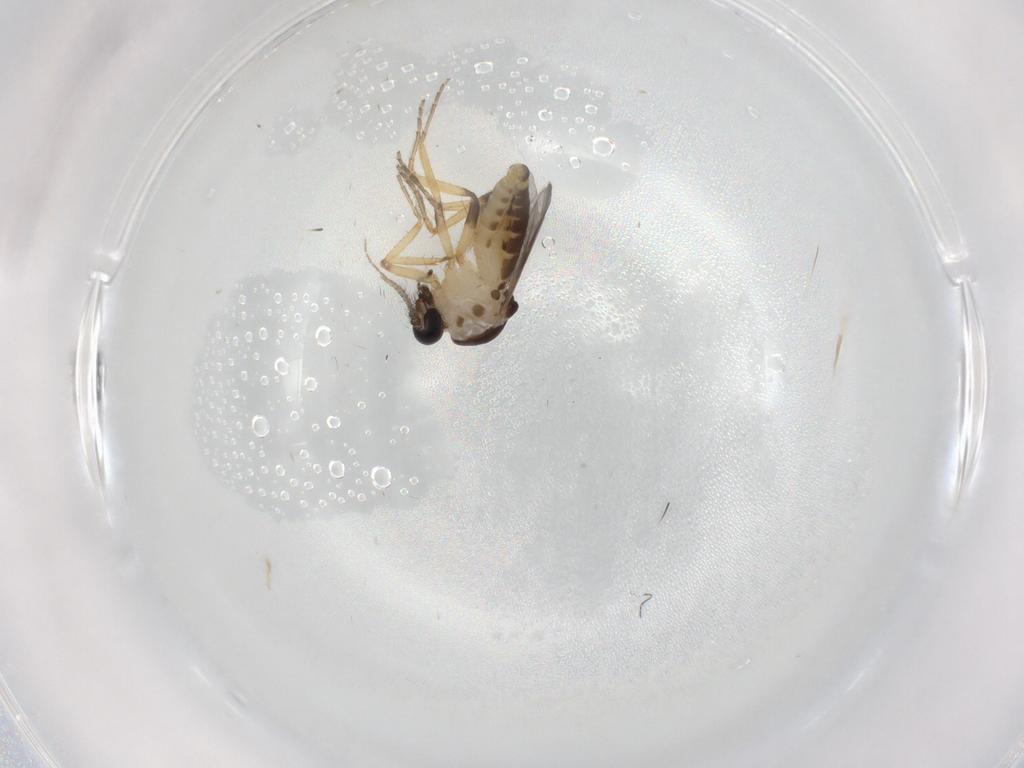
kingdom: Animalia
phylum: Arthropoda
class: Insecta
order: Diptera
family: Ceratopogonidae
